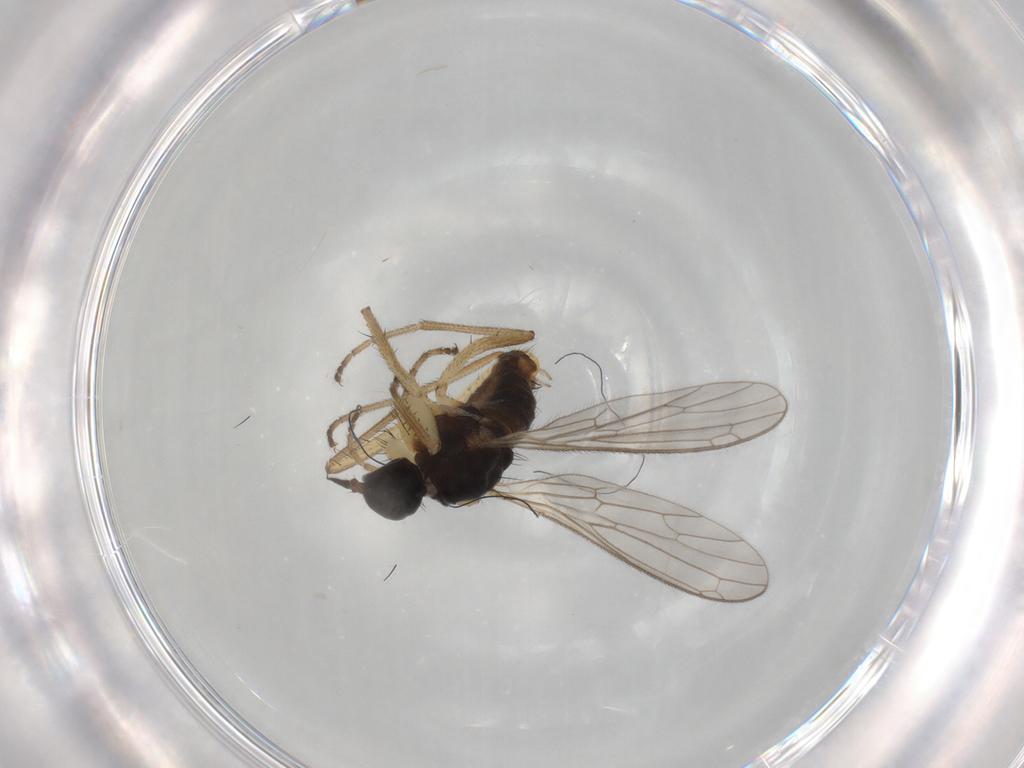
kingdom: Animalia
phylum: Arthropoda
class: Insecta
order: Diptera
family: Empididae
